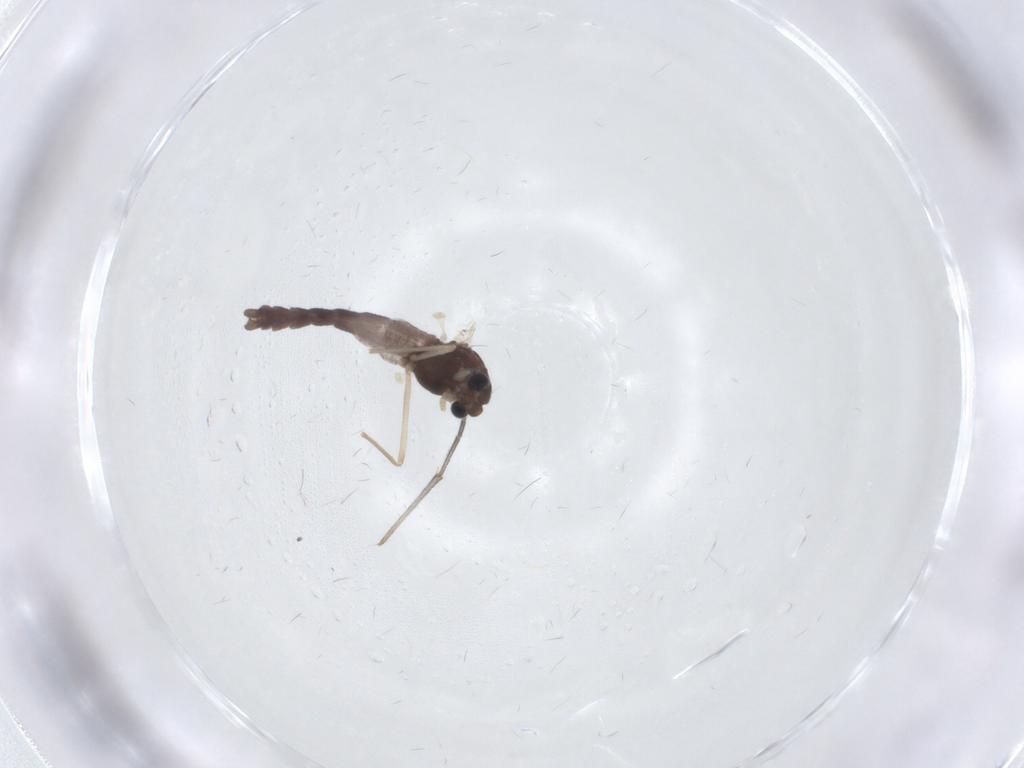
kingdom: Animalia
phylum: Arthropoda
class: Insecta
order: Diptera
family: Chironomidae
